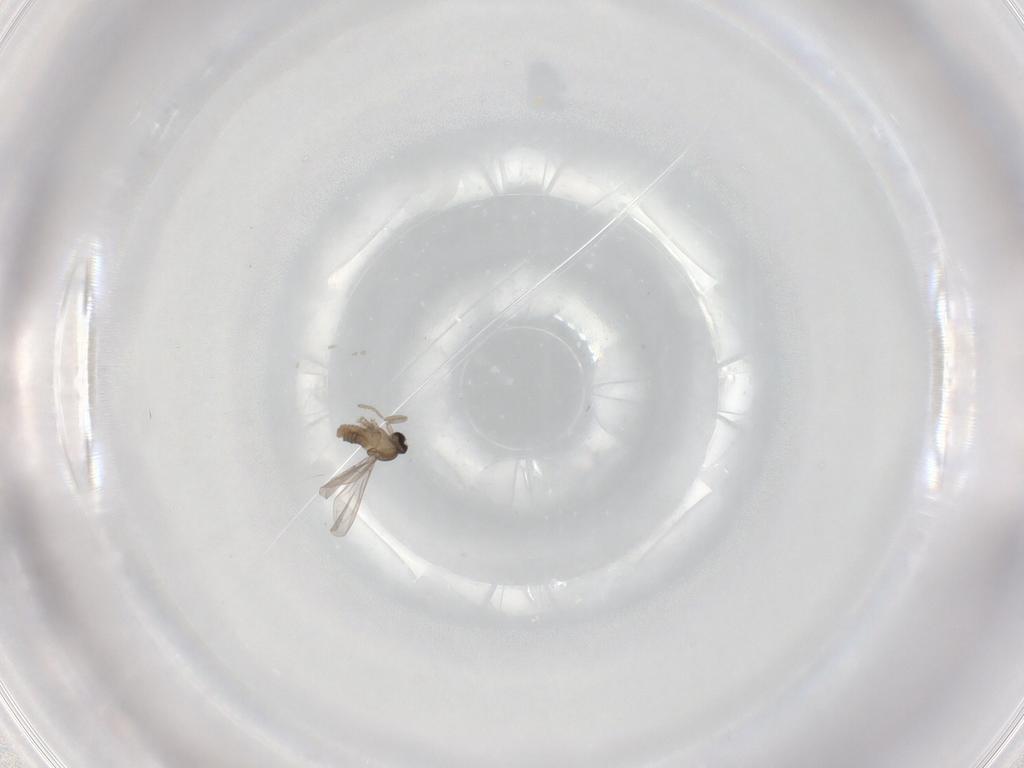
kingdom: Animalia
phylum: Arthropoda
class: Insecta
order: Diptera
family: Cecidomyiidae
